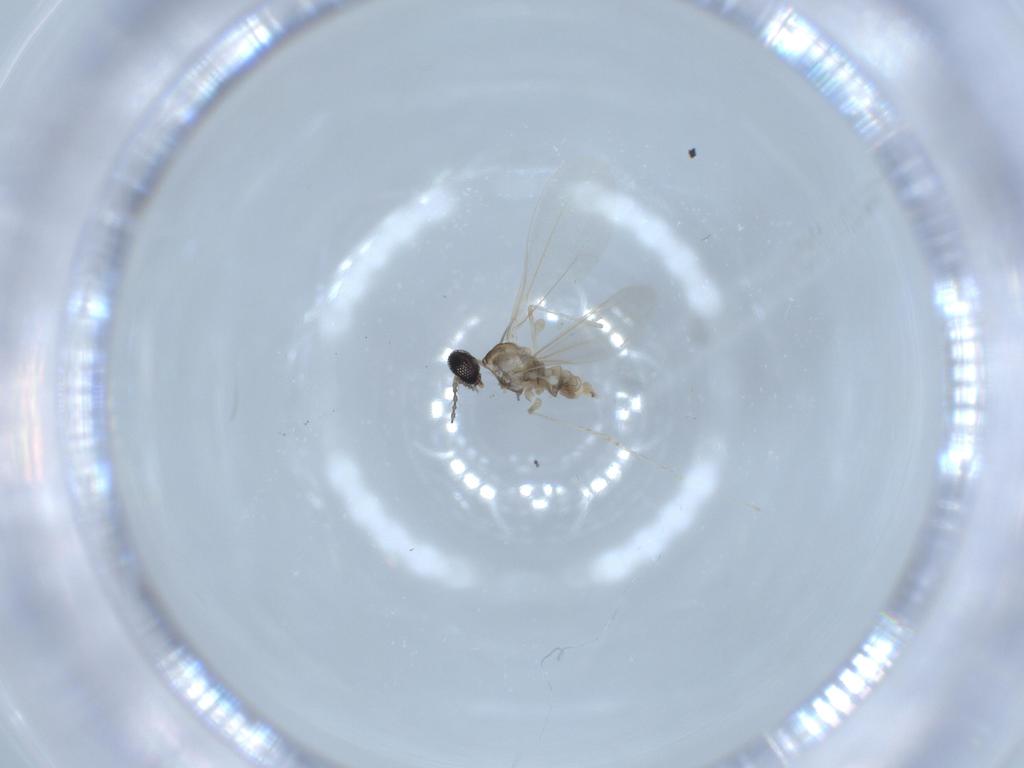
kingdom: Animalia
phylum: Arthropoda
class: Insecta
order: Diptera
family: Cecidomyiidae
